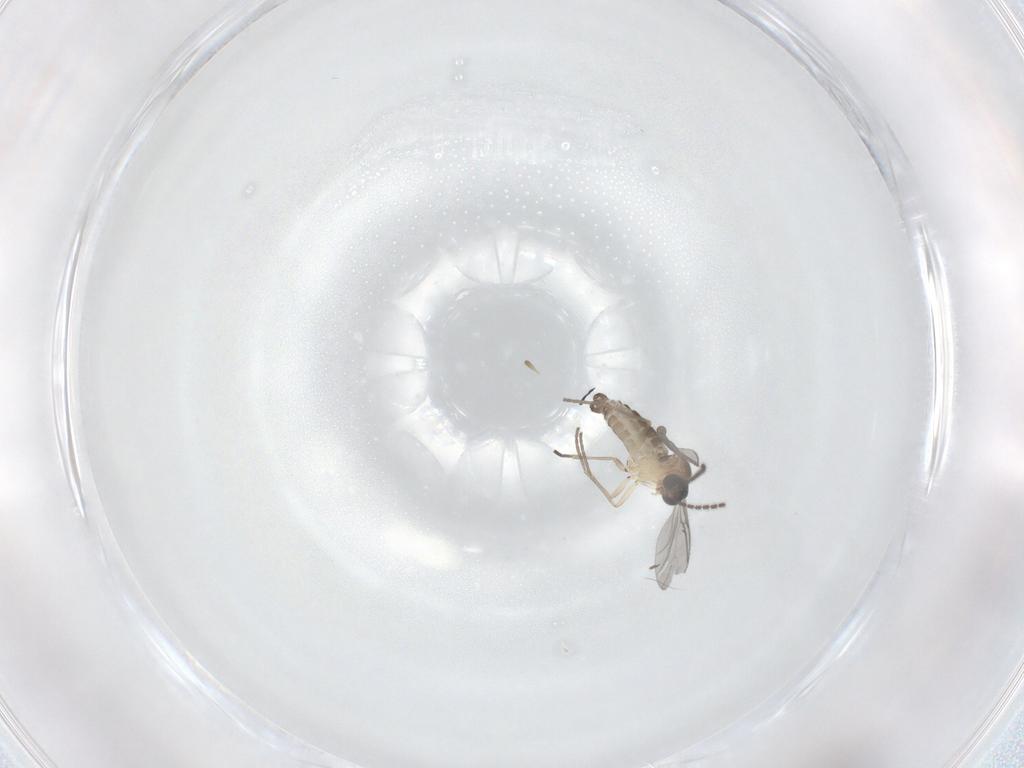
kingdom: Animalia
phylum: Arthropoda
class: Insecta
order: Diptera
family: Sciaridae
